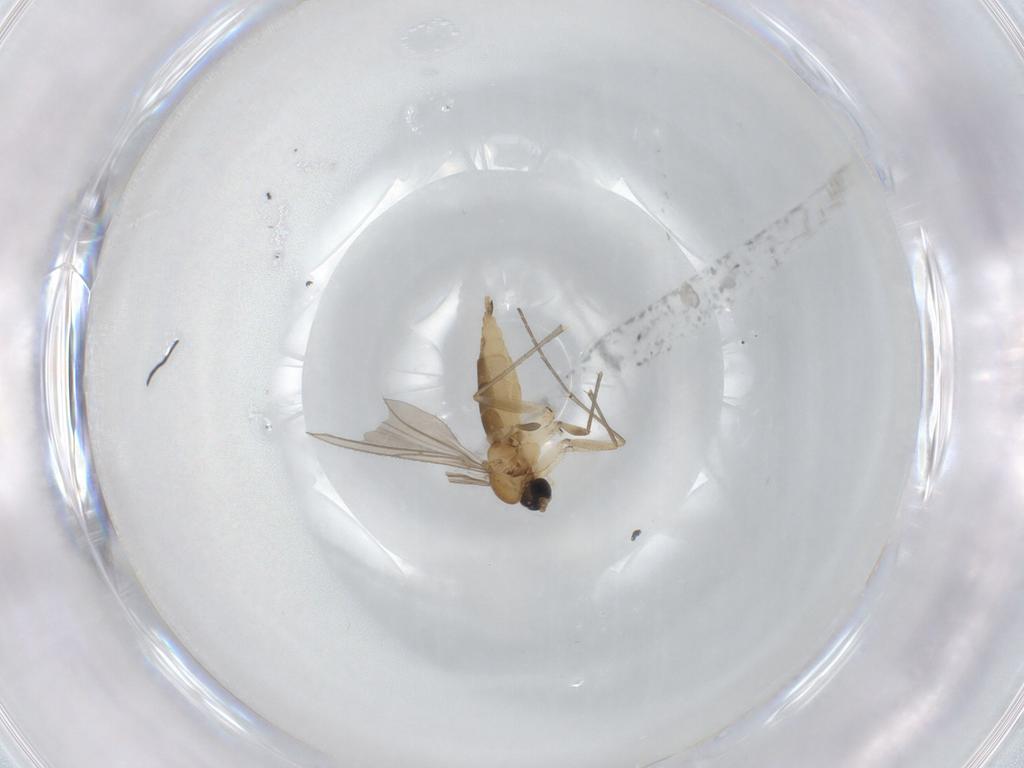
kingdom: Animalia
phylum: Arthropoda
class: Insecta
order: Diptera
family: Sciaridae
